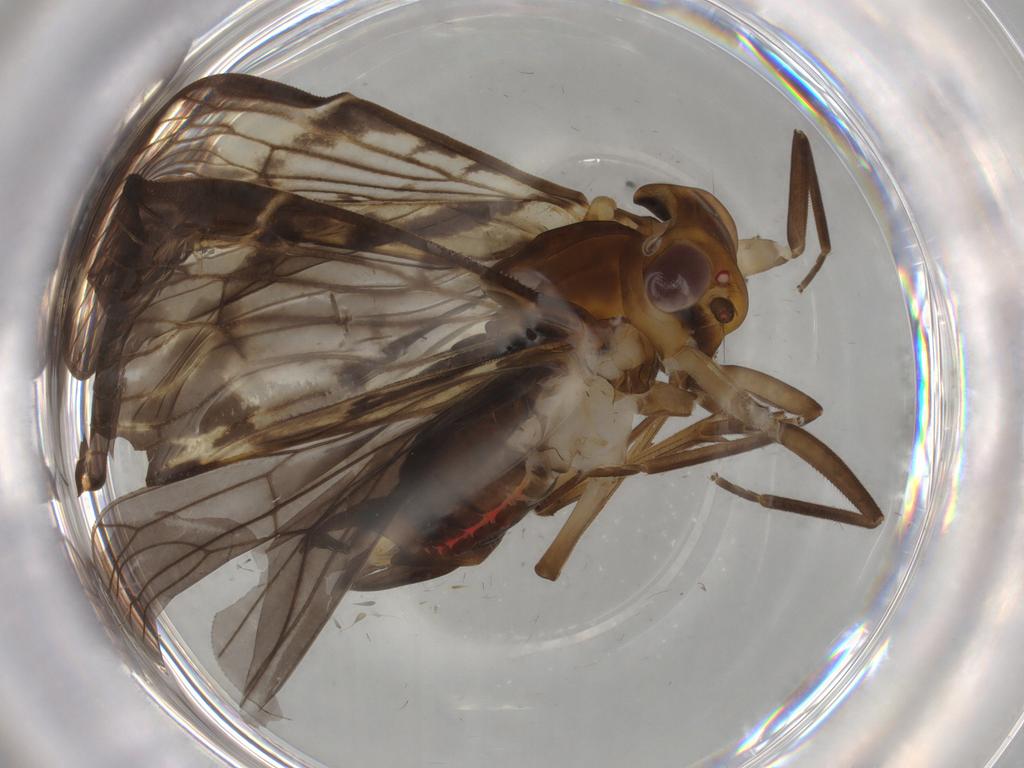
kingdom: Animalia
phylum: Arthropoda
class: Insecta
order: Hemiptera
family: Cixiidae
